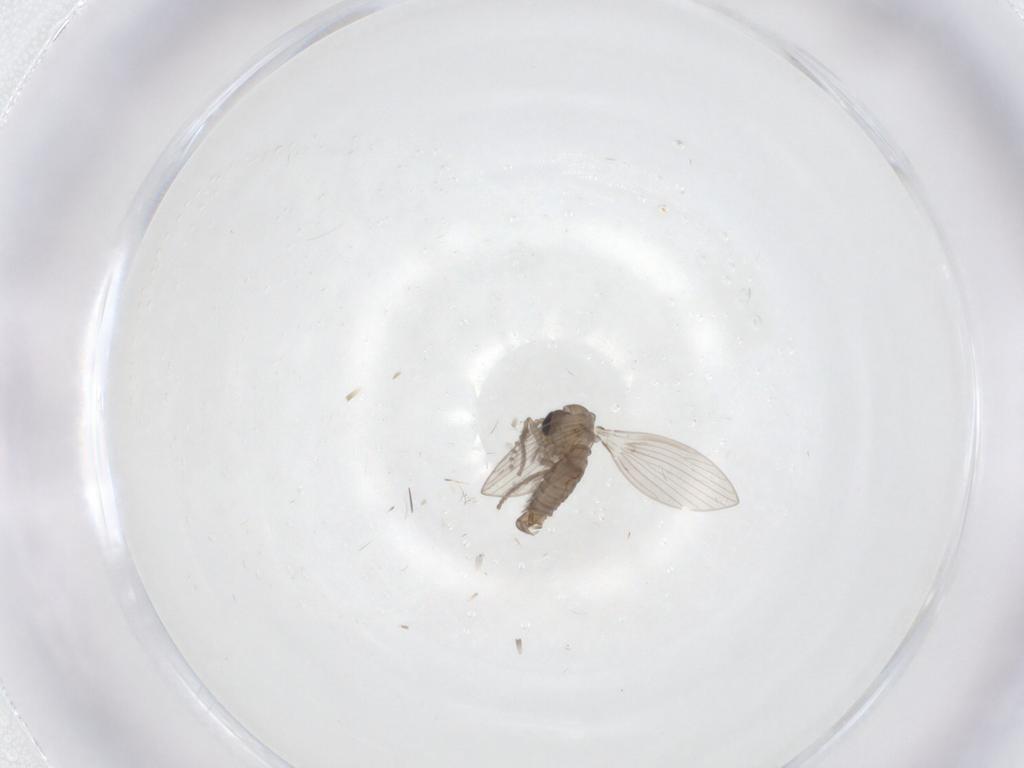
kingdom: Animalia
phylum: Arthropoda
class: Insecta
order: Diptera
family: Psychodidae
